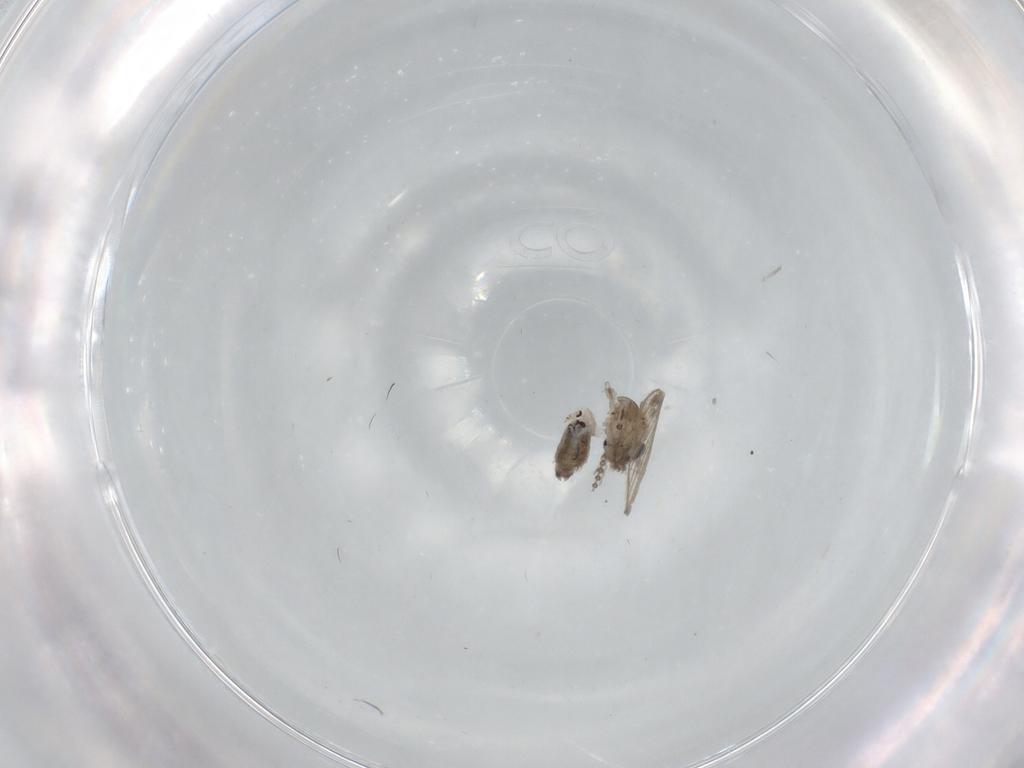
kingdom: Animalia
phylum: Arthropoda
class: Insecta
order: Diptera
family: Psychodidae
